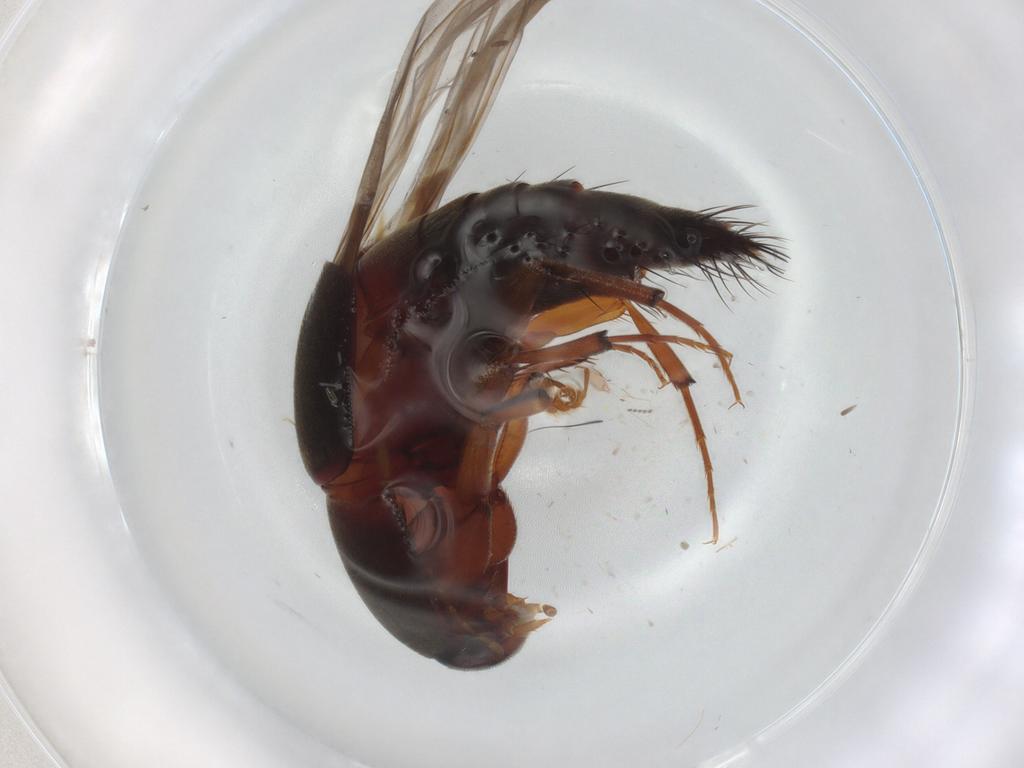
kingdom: Animalia
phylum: Arthropoda
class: Insecta
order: Coleoptera
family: Staphylinidae
